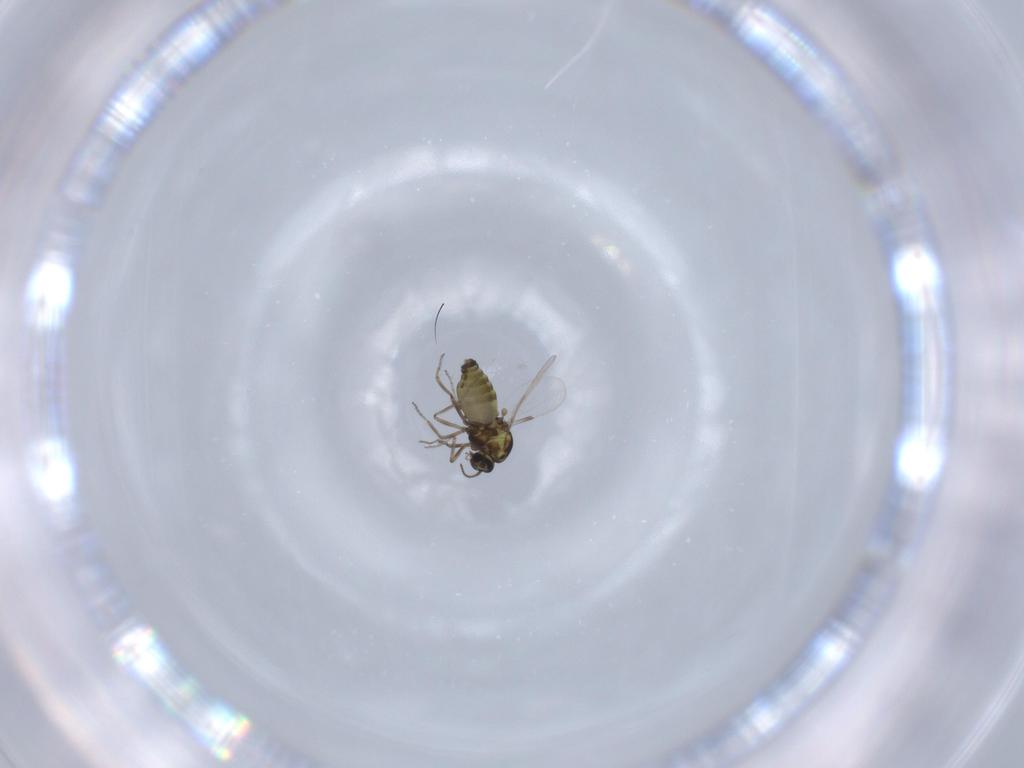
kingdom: Animalia
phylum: Arthropoda
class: Insecta
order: Diptera
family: Ceratopogonidae
